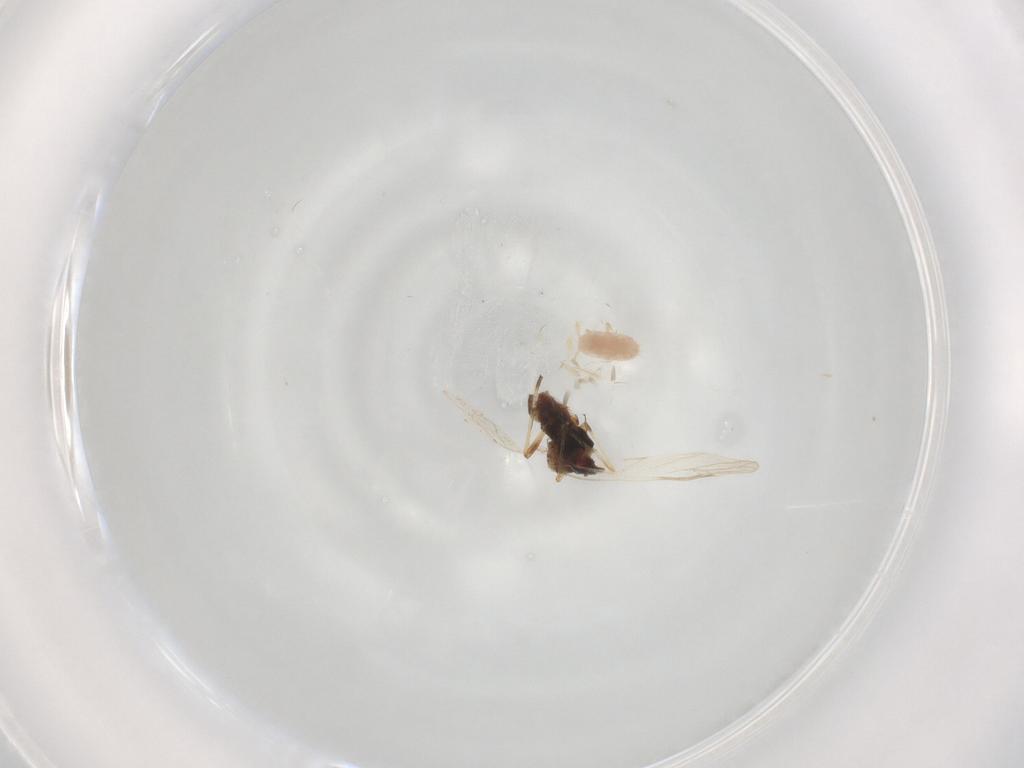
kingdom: Animalia
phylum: Arthropoda
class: Insecta
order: Hemiptera
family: Aphididae
